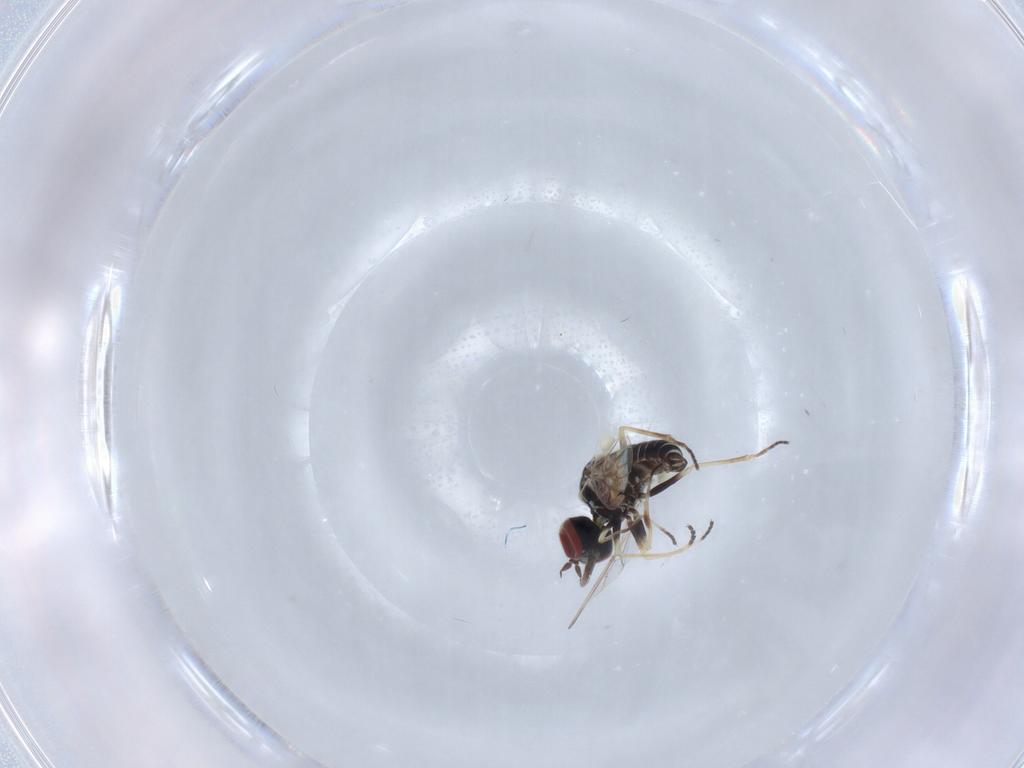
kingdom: Animalia
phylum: Arthropoda
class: Insecta
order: Diptera
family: Mythicomyiidae
